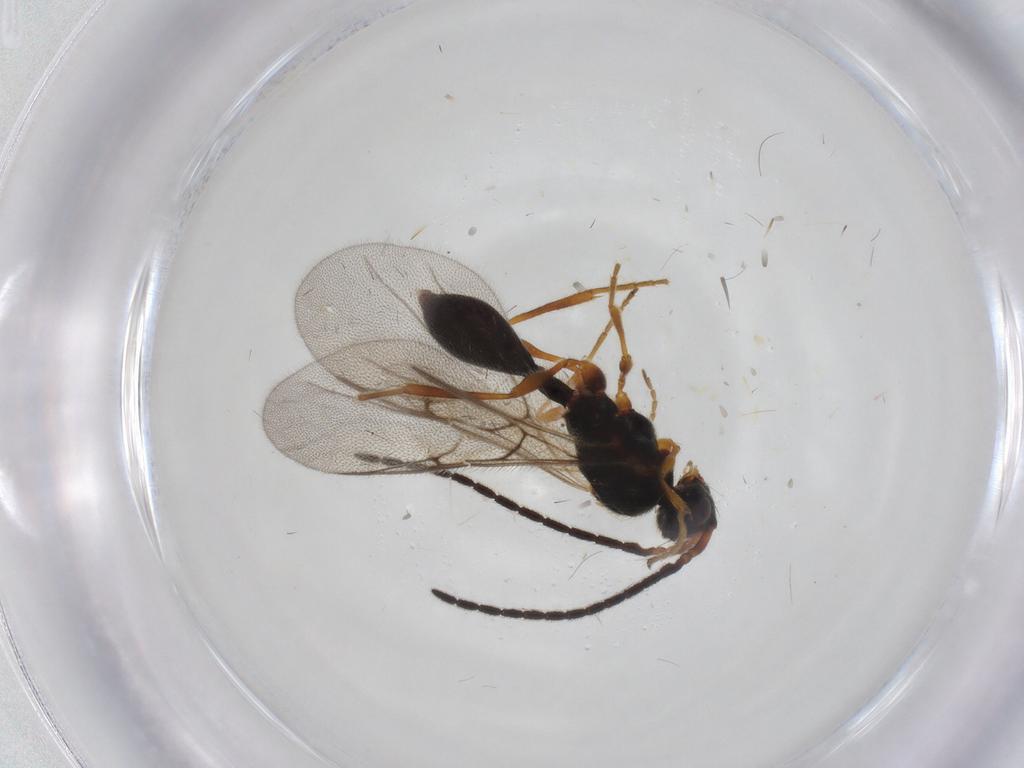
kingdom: Animalia
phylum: Arthropoda
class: Insecta
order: Hymenoptera
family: Diapriidae
